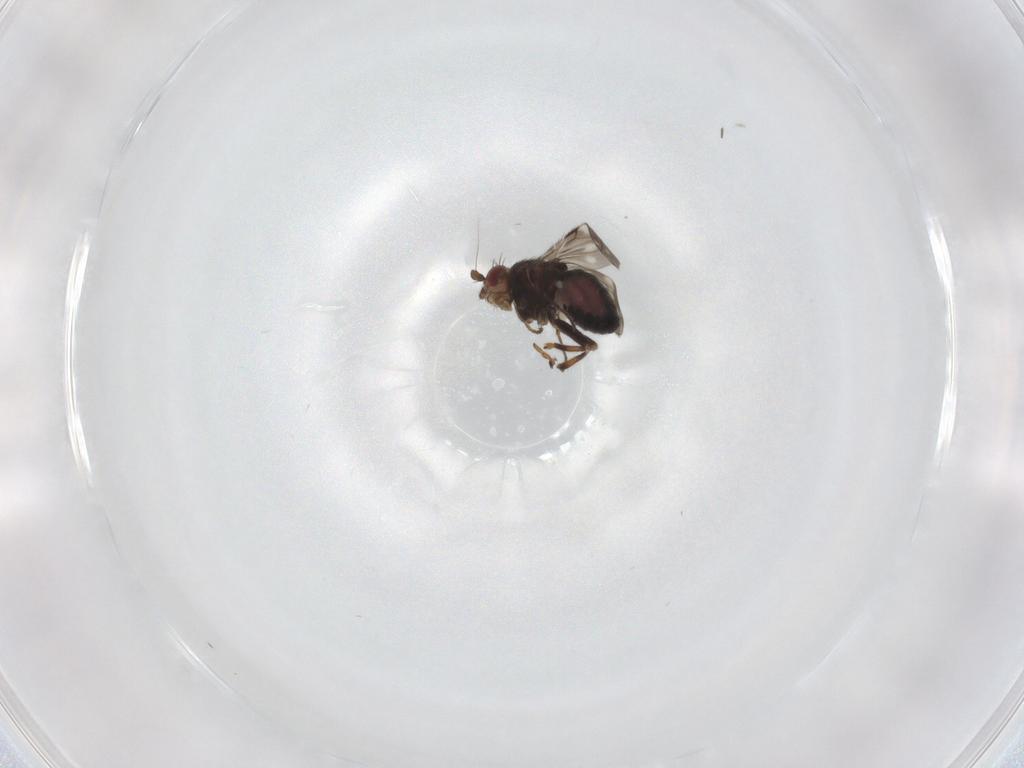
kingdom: Animalia
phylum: Arthropoda
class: Insecta
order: Diptera
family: Sphaeroceridae
